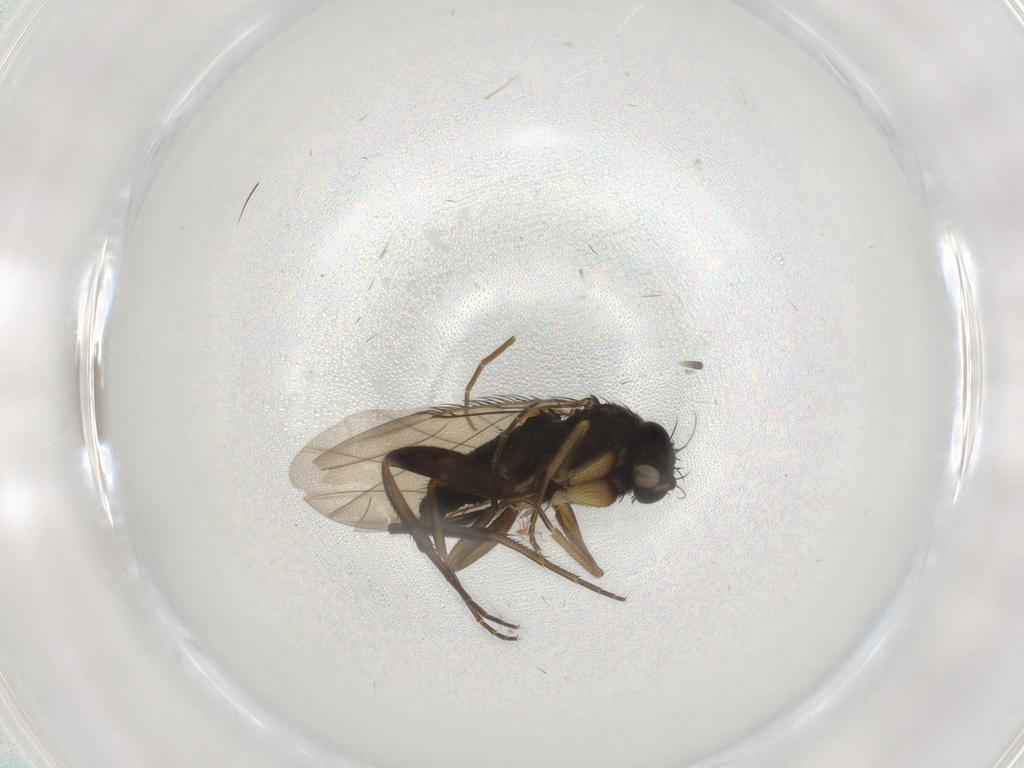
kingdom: Animalia
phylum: Arthropoda
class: Insecta
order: Diptera
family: Phoridae
